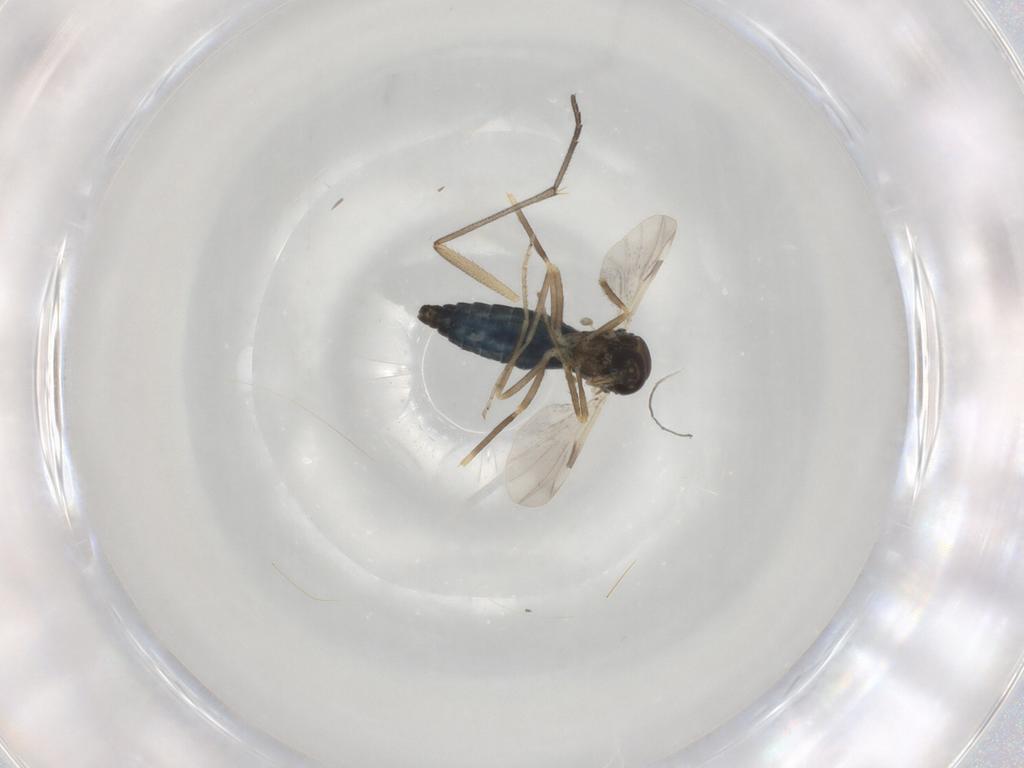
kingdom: Animalia
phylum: Arthropoda
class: Insecta
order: Diptera
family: Sciaridae
